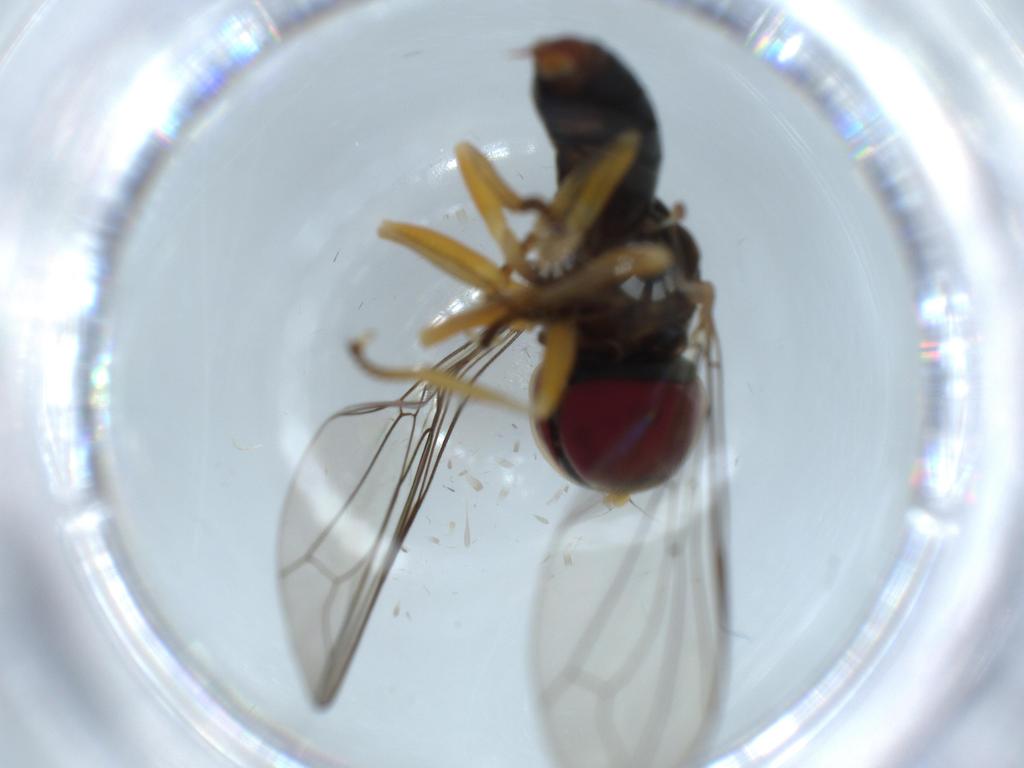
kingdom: Animalia
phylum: Arthropoda
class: Insecta
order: Diptera
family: Pipunculidae
